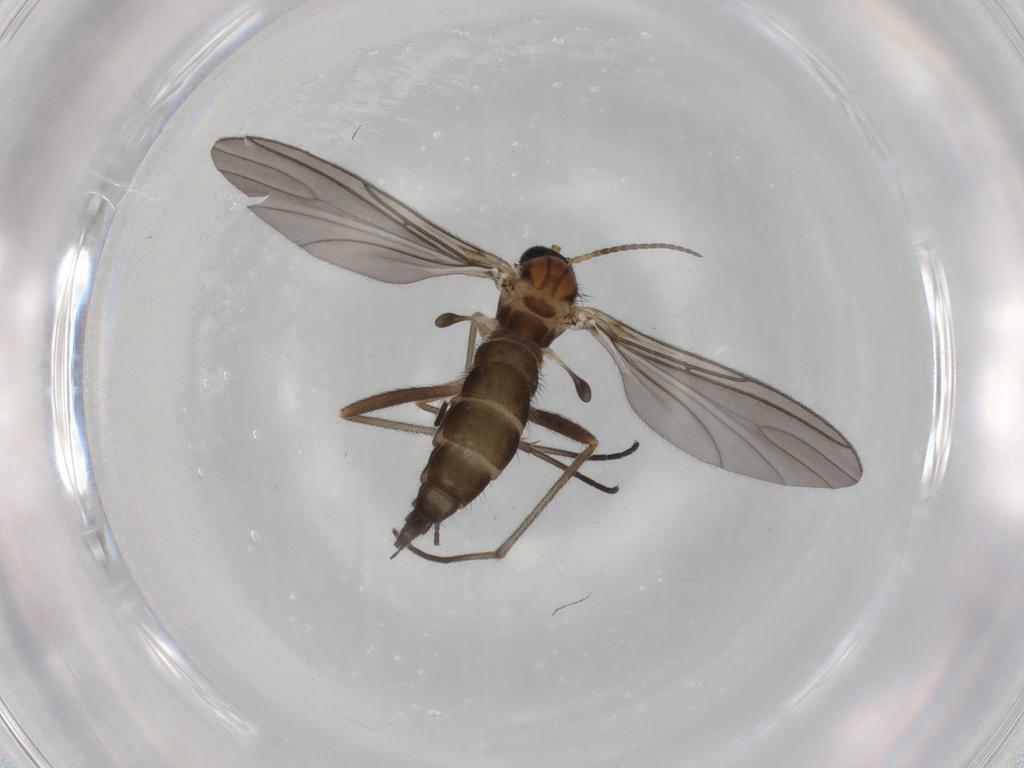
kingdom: Animalia
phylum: Arthropoda
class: Insecta
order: Diptera
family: Sciaridae
